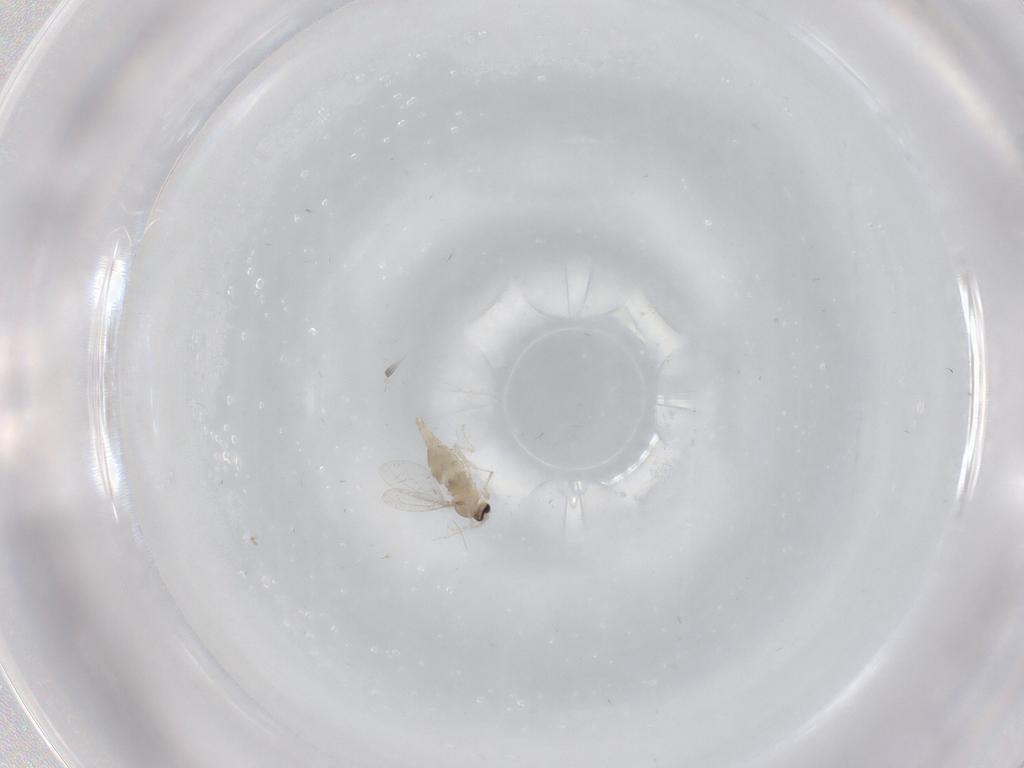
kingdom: Animalia
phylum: Arthropoda
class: Insecta
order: Diptera
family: Cecidomyiidae
